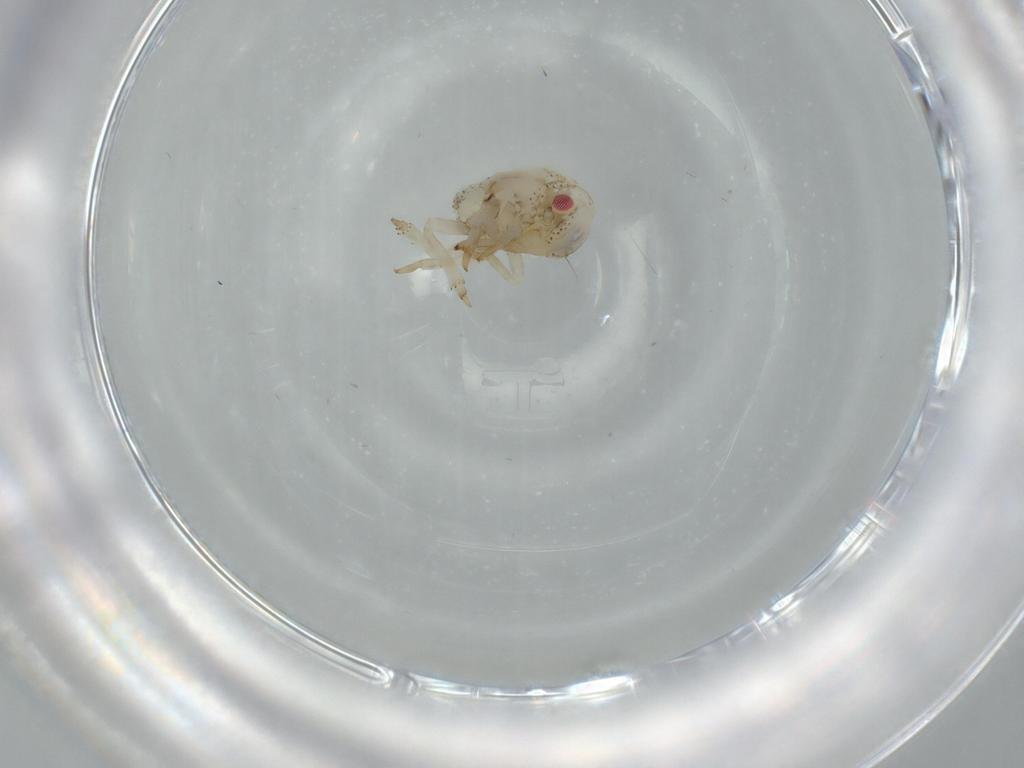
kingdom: Animalia
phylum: Arthropoda
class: Insecta
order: Hemiptera
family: Acanaloniidae
